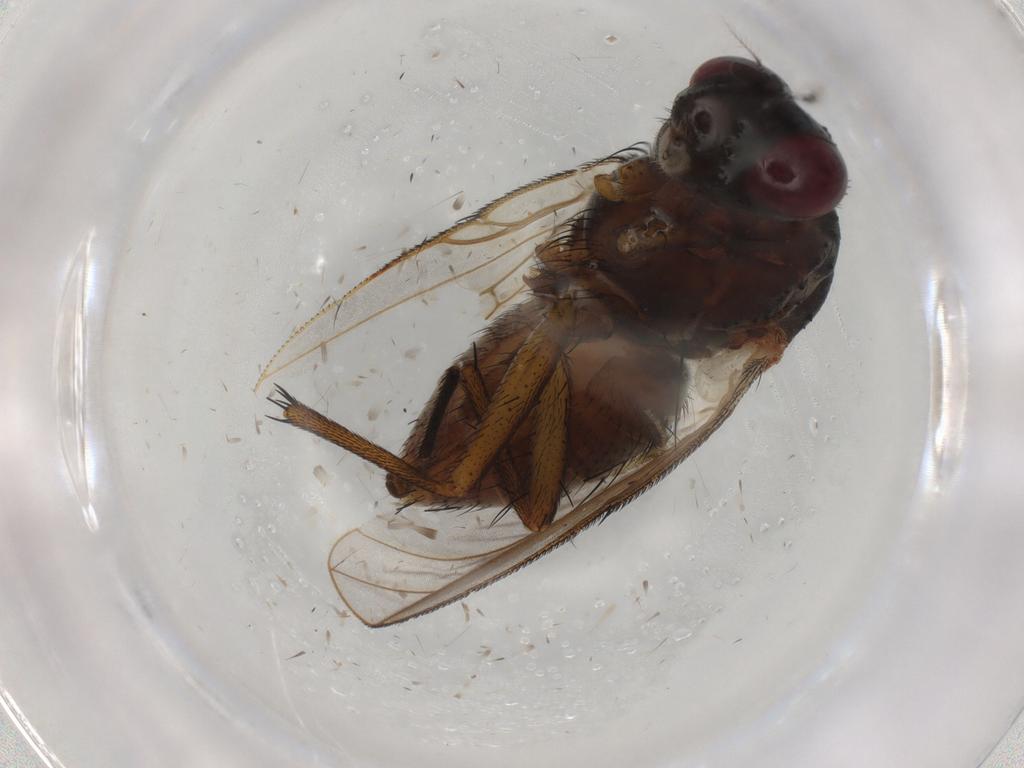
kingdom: Animalia
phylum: Arthropoda
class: Insecta
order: Diptera
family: Muscidae
